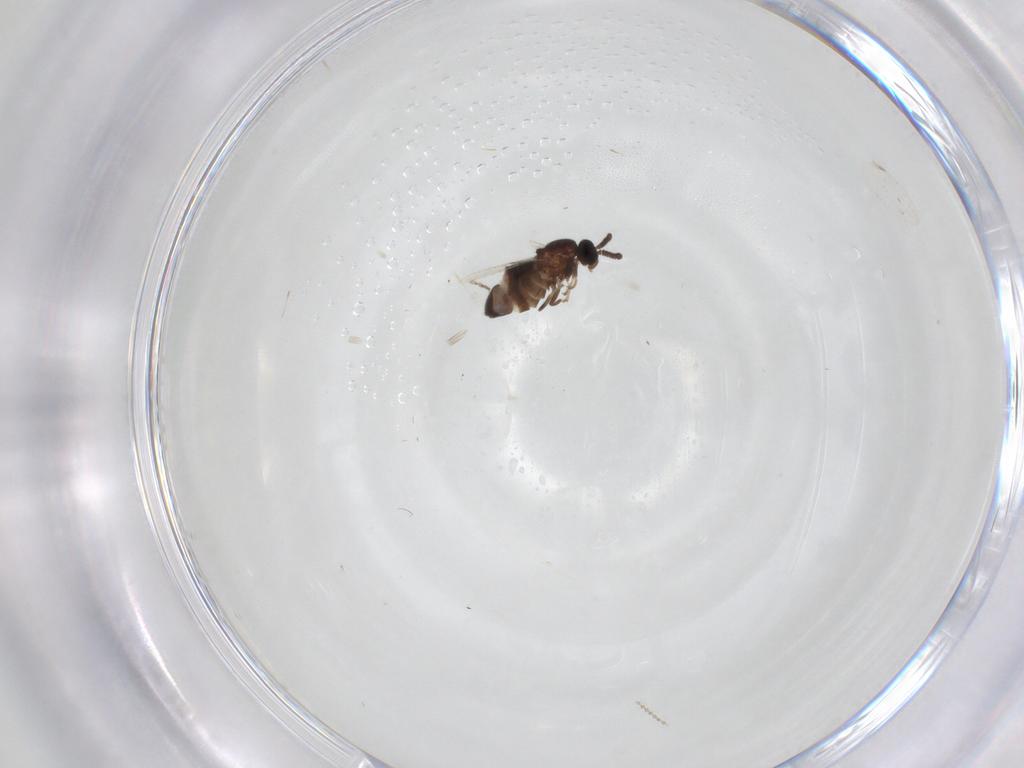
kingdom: Animalia
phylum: Arthropoda
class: Insecta
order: Diptera
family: Scatopsidae
